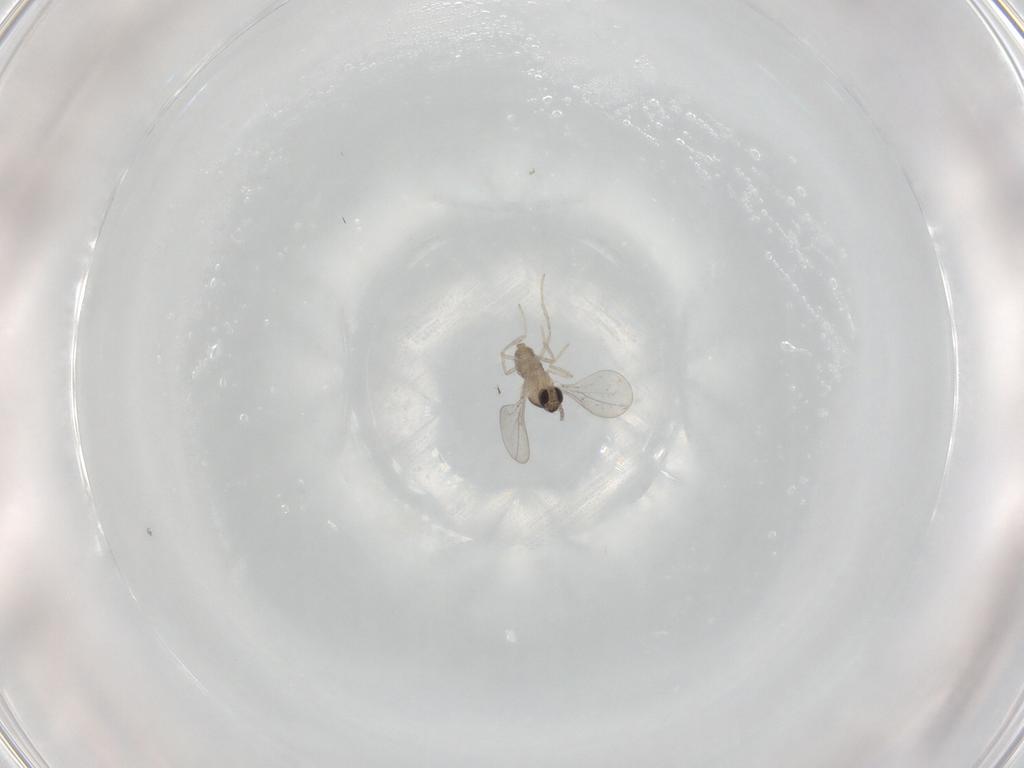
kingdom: Animalia
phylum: Arthropoda
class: Insecta
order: Diptera
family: Cecidomyiidae
